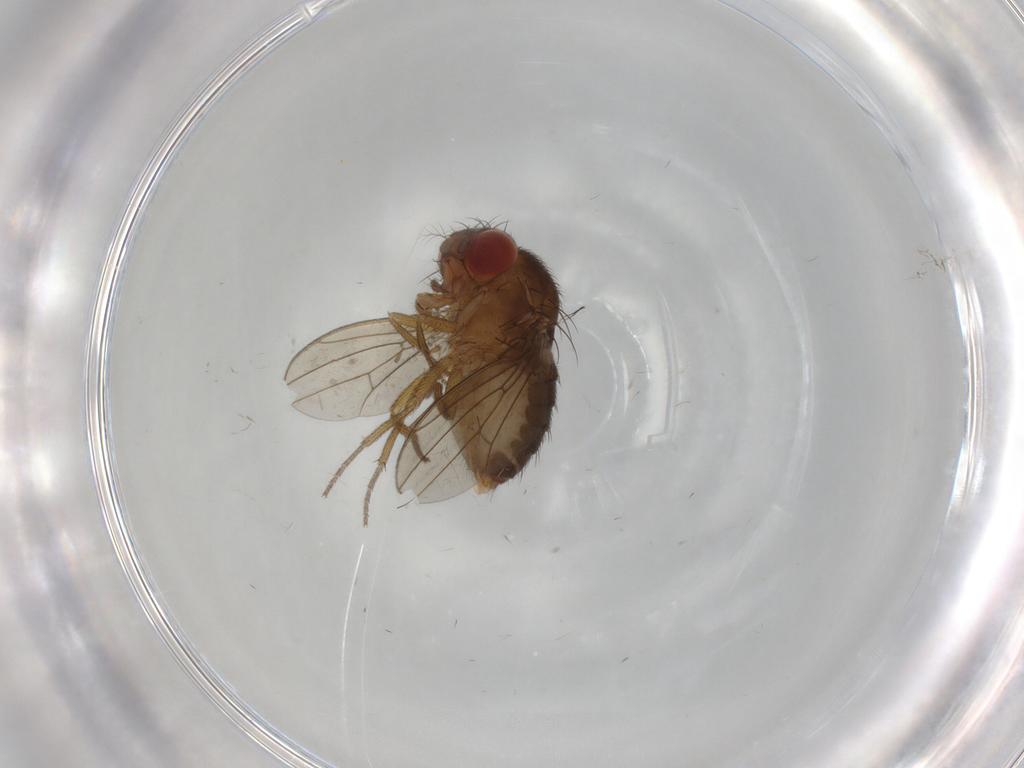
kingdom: Animalia
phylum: Arthropoda
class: Insecta
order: Diptera
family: Drosophilidae
